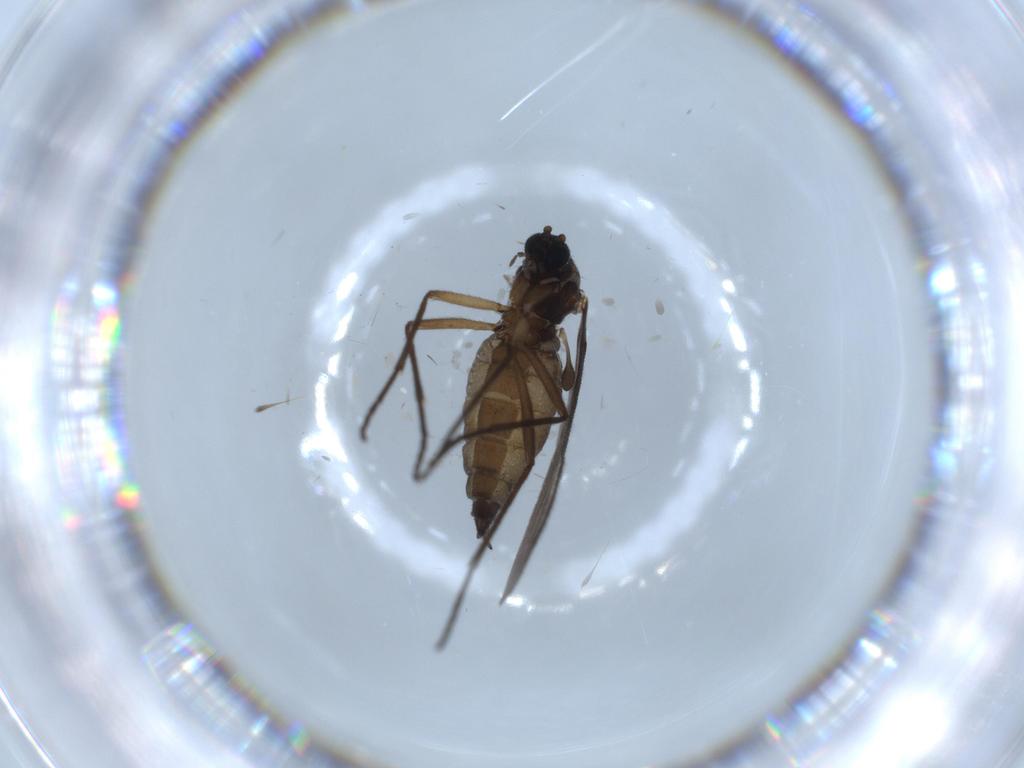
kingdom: Animalia
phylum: Arthropoda
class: Insecta
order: Diptera
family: Sciaridae
